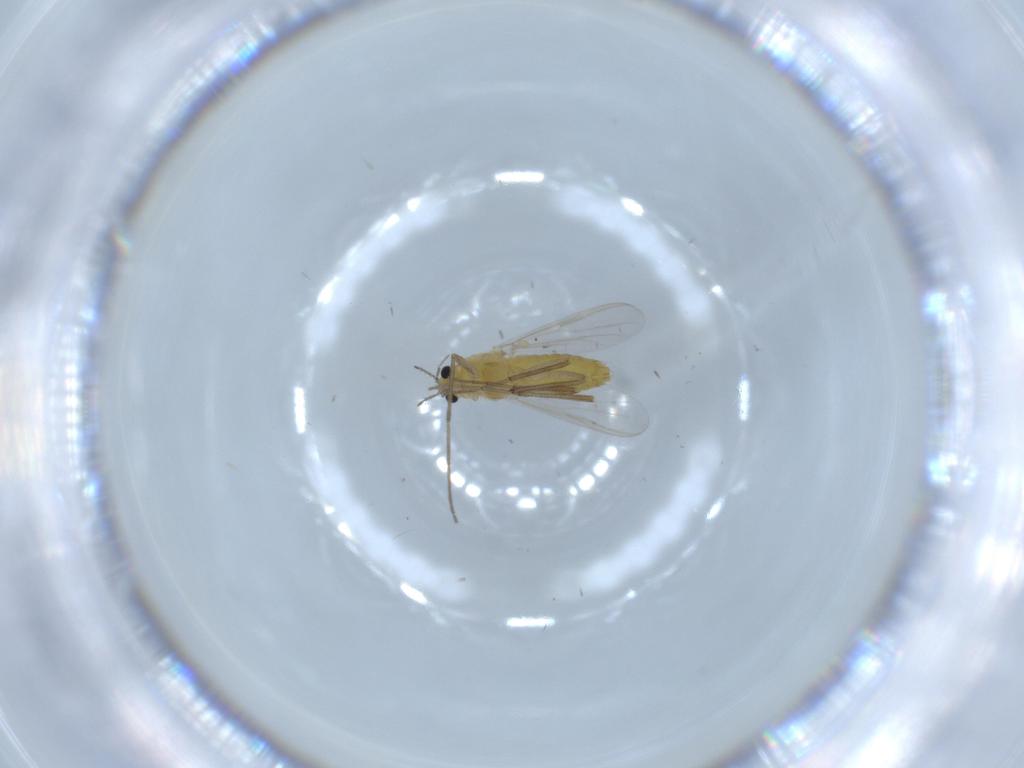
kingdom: Animalia
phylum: Arthropoda
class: Insecta
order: Diptera
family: Chironomidae
